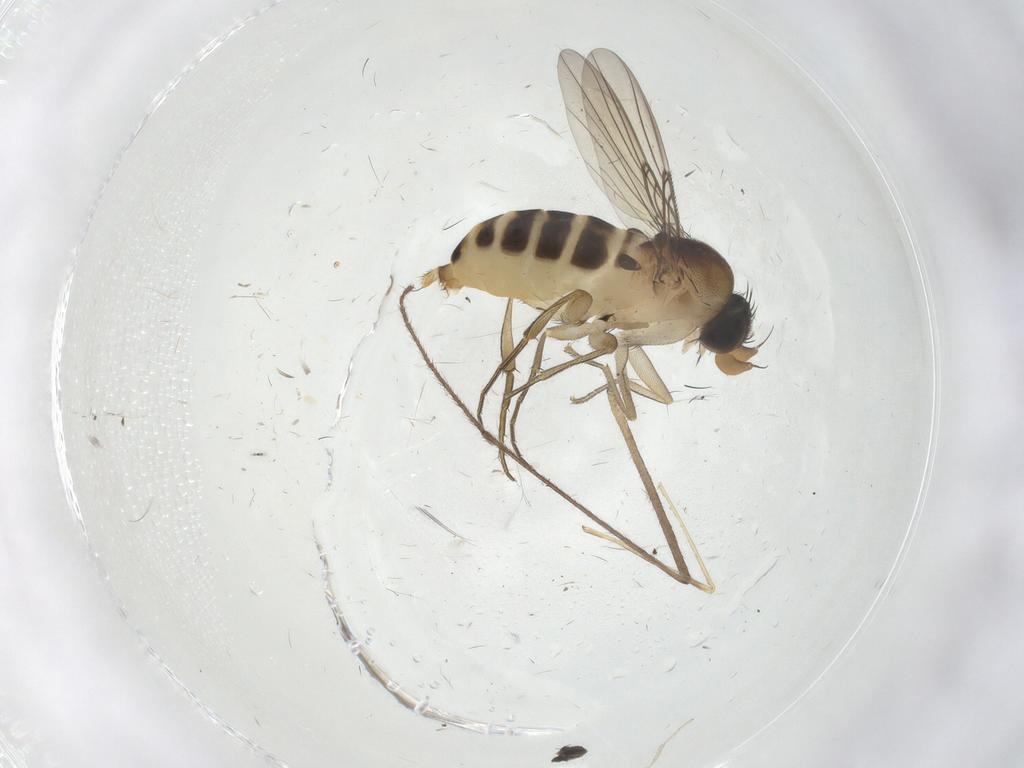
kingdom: Animalia
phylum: Arthropoda
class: Insecta
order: Diptera
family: Phoridae
